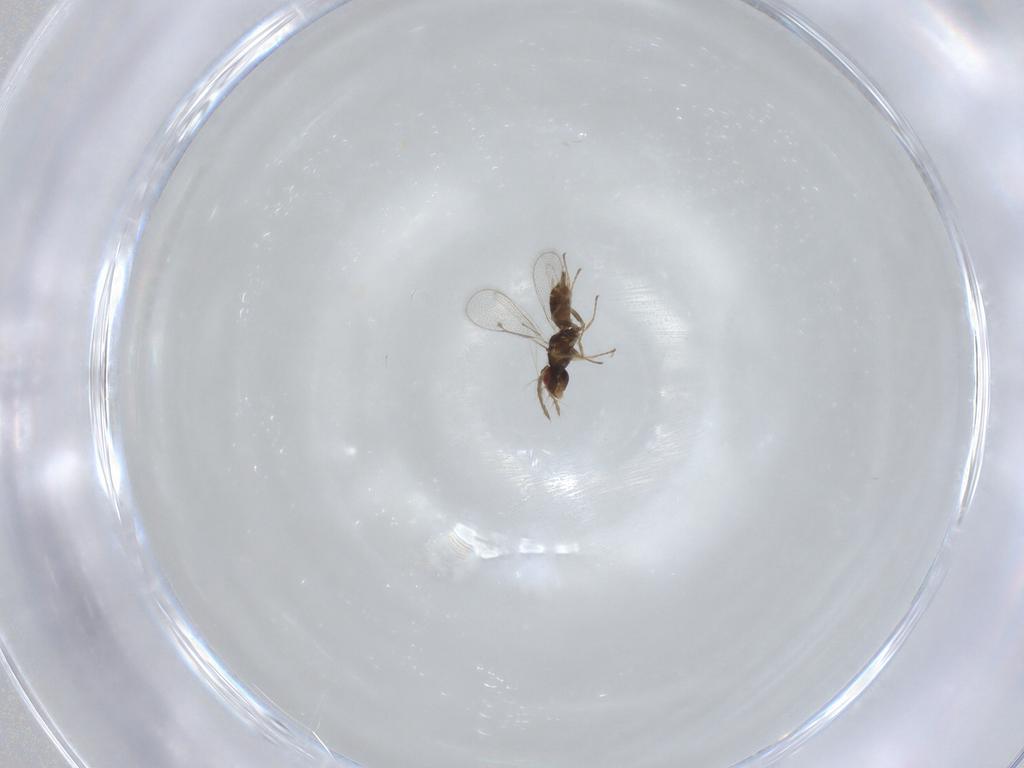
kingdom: Animalia
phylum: Arthropoda
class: Insecta
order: Hymenoptera
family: Eulophidae
